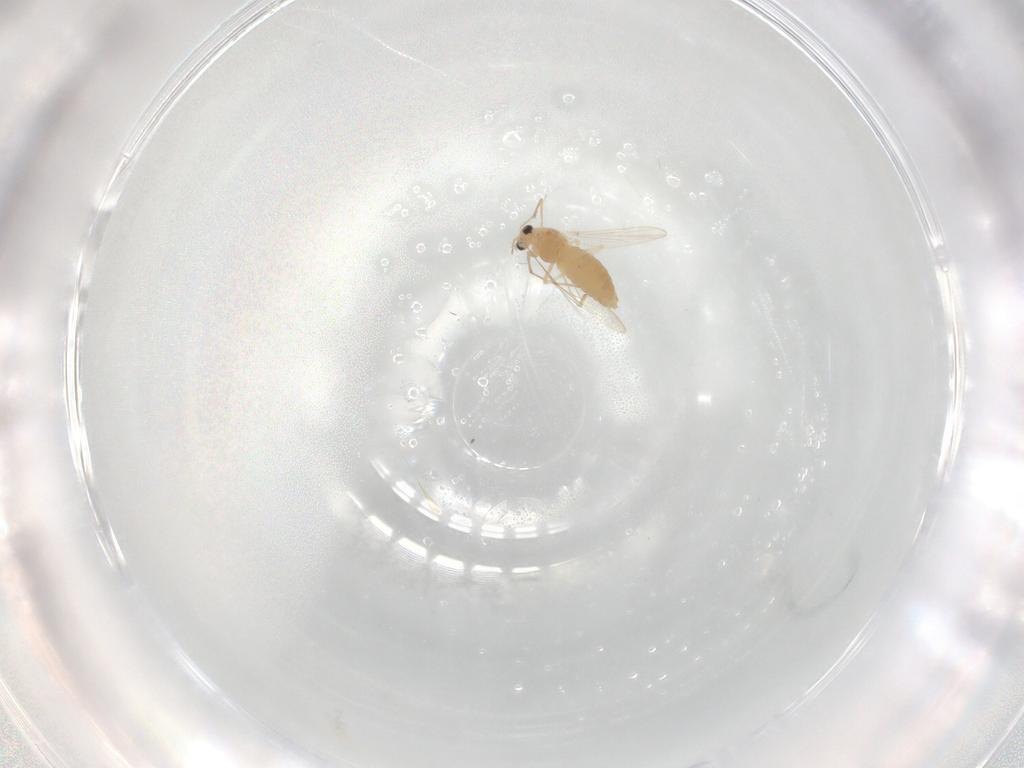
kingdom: Animalia
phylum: Arthropoda
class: Insecta
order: Diptera
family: Chironomidae
